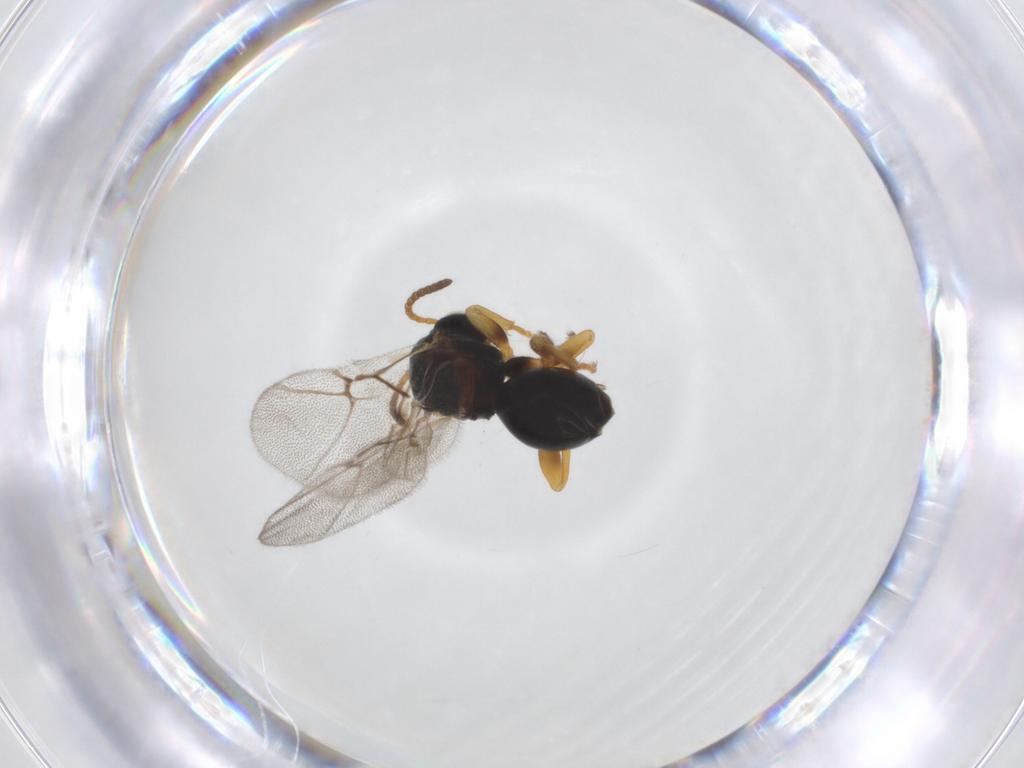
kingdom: Animalia
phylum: Arthropoda
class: Insecta
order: Hymenoptera
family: Cynipidae
